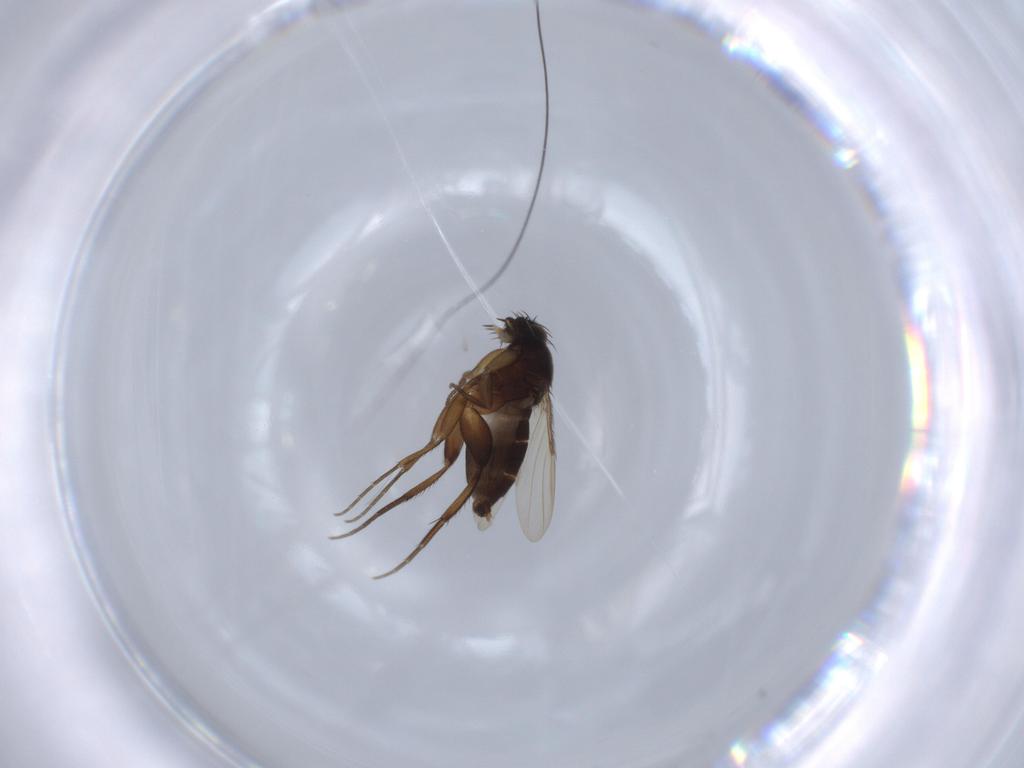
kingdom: Animalia
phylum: Arthropoda
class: Insecta
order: Diptera
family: Phoridae
